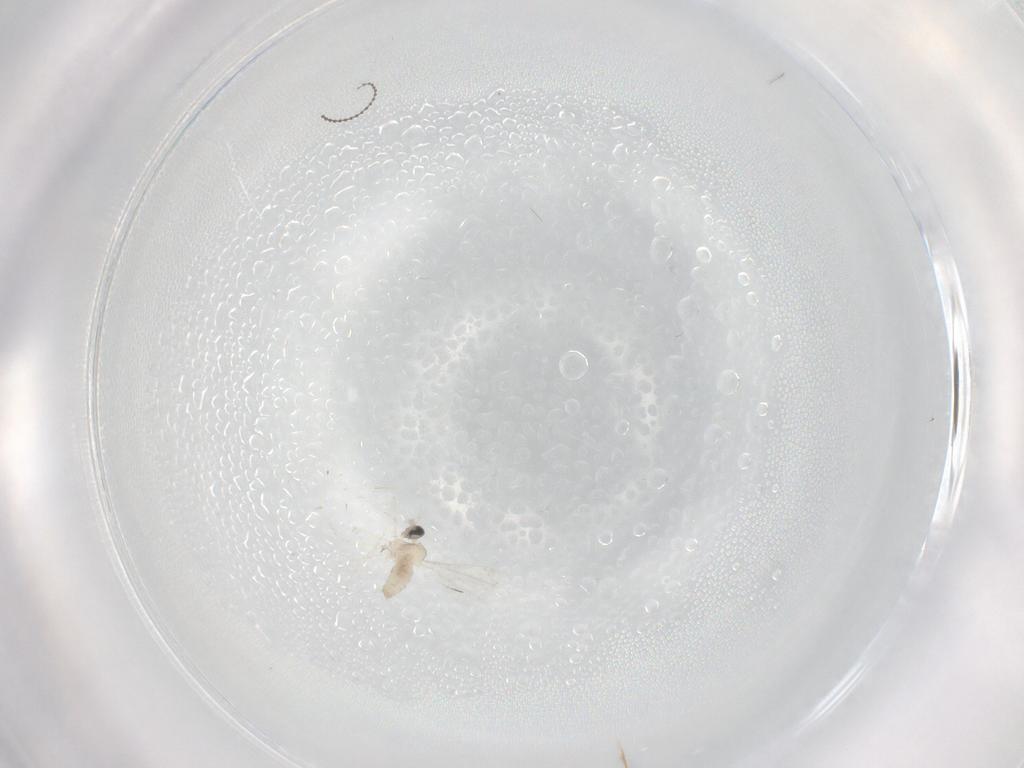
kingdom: Animalia
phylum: Arthropoda
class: Insecta
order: Diptera
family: Cecidomyiidae
